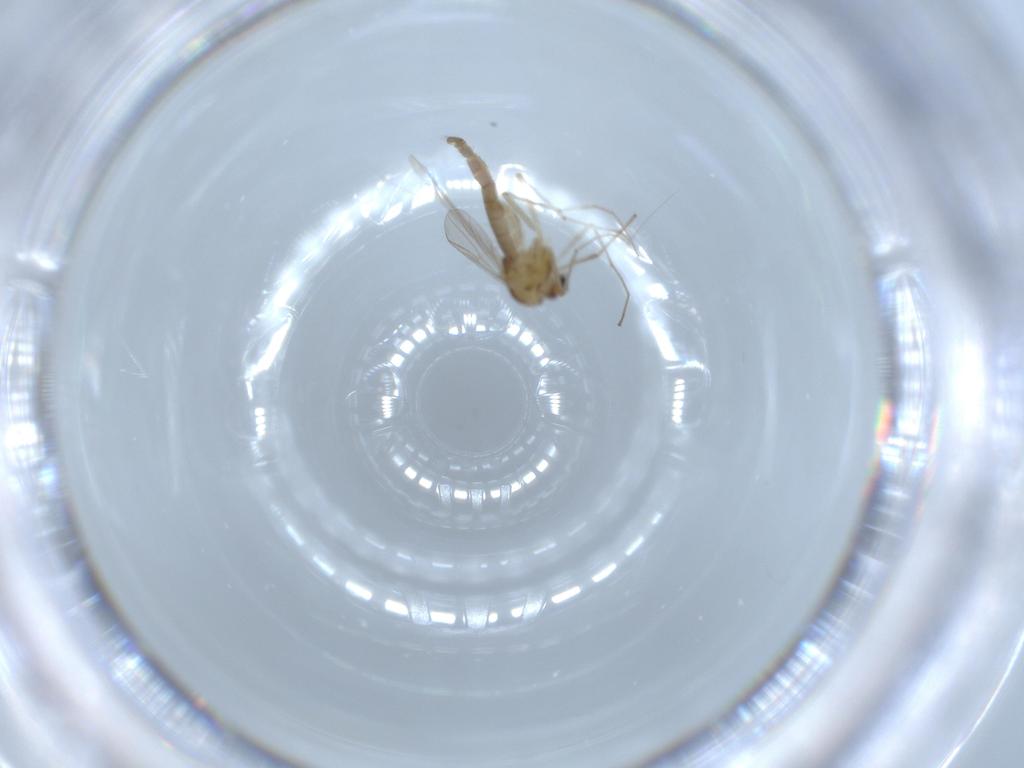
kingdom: Animalia
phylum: Arthropoda
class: Insecta
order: Diptera
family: Chironomidae
